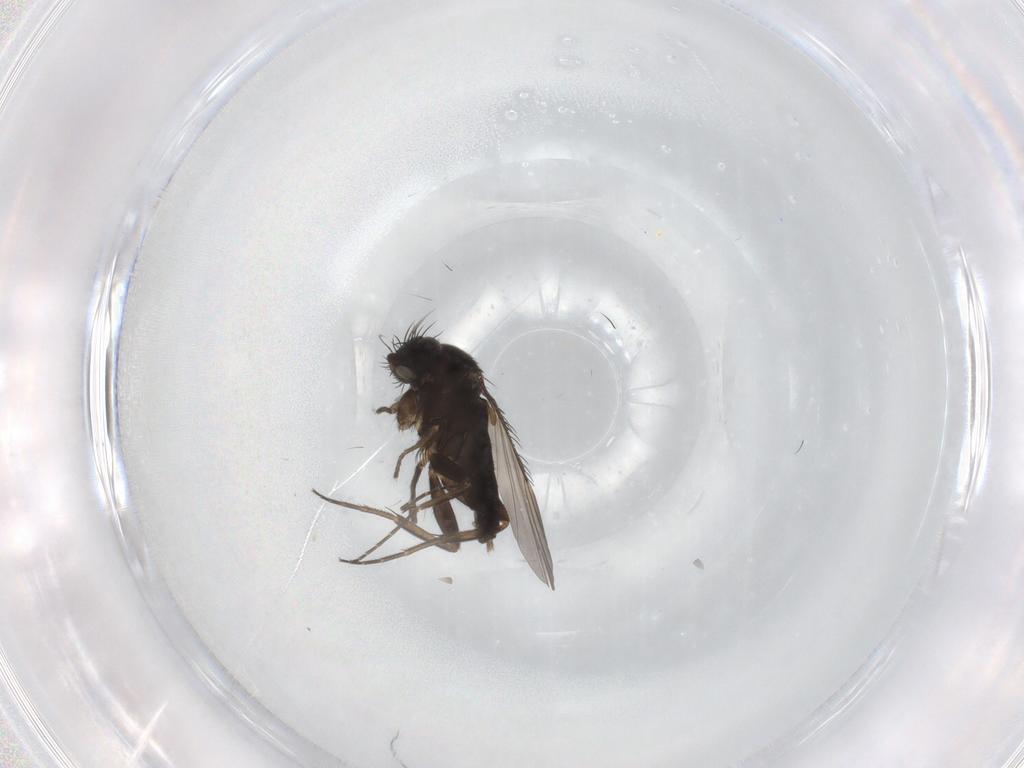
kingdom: Animalia
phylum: Arthropoda
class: Insecta
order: Diptera
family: Phoridae
